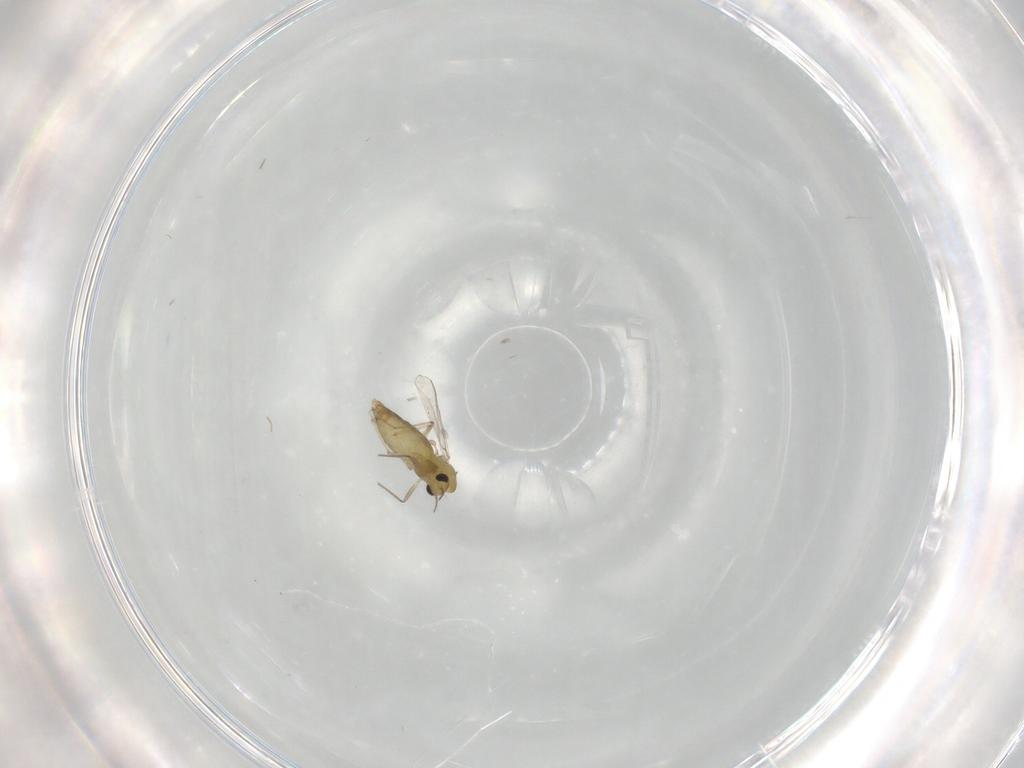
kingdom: Animalia
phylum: Arthropoda
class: Insecta
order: Diptera
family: Chironomidae
